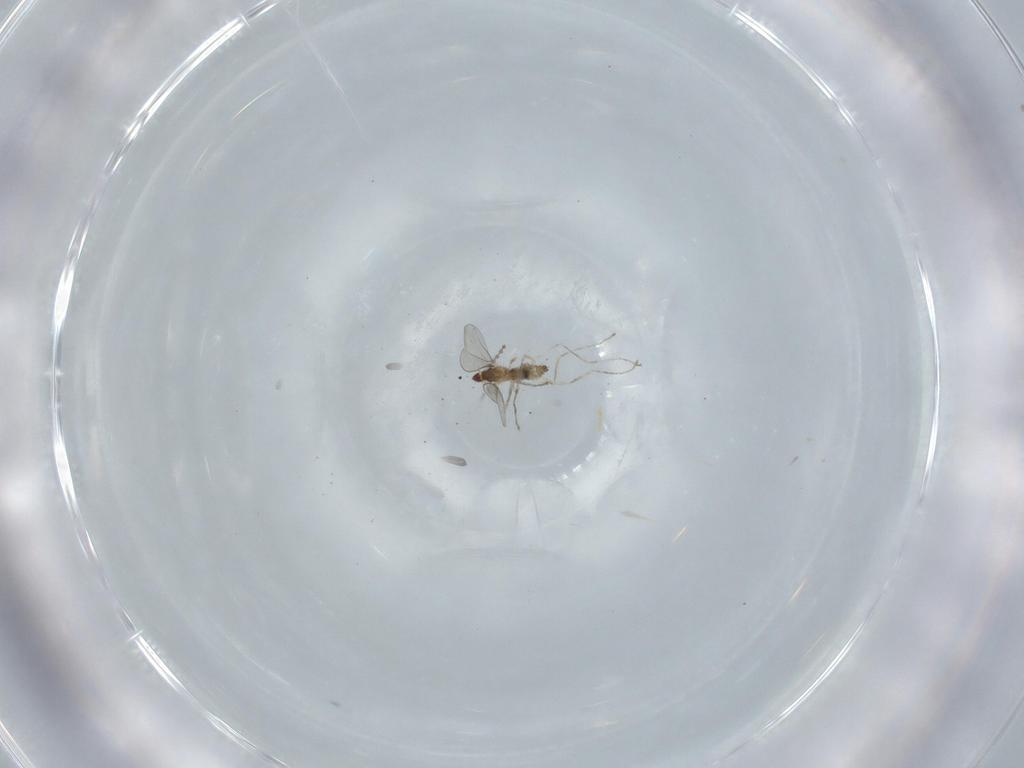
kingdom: Animalia
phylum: Arthropoda
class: Insecta
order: Diptera
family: Cecidomyiidae
